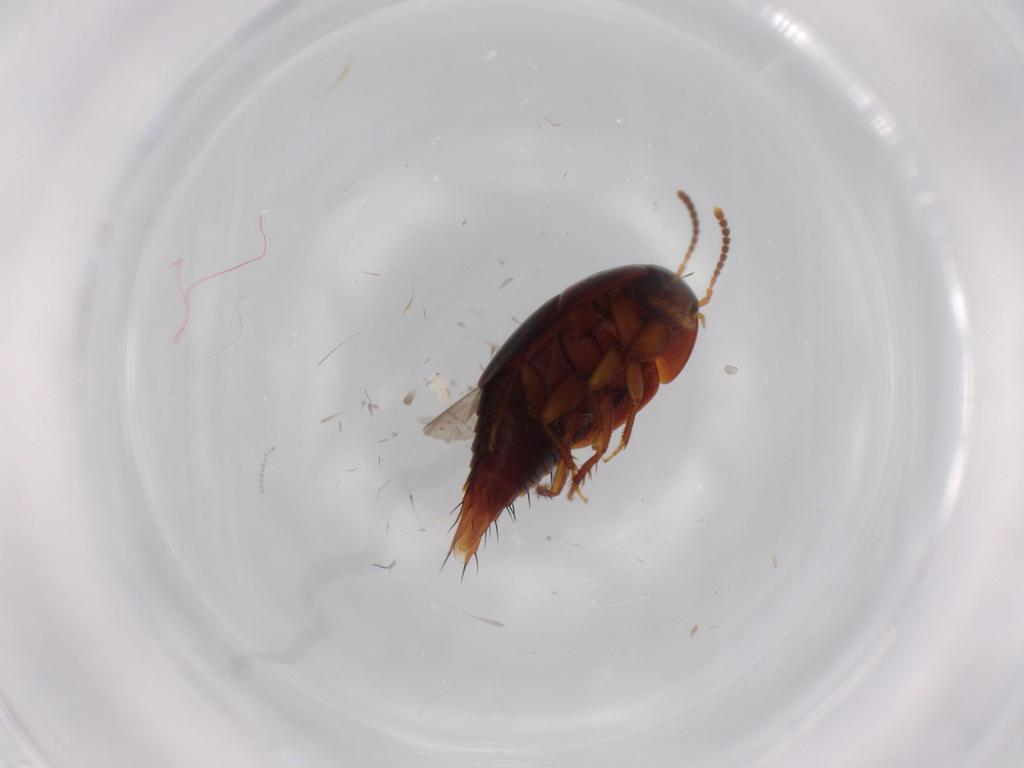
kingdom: Animalia
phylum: Arthropoda
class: Insecta
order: Coleoptera
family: Staphylinidae
